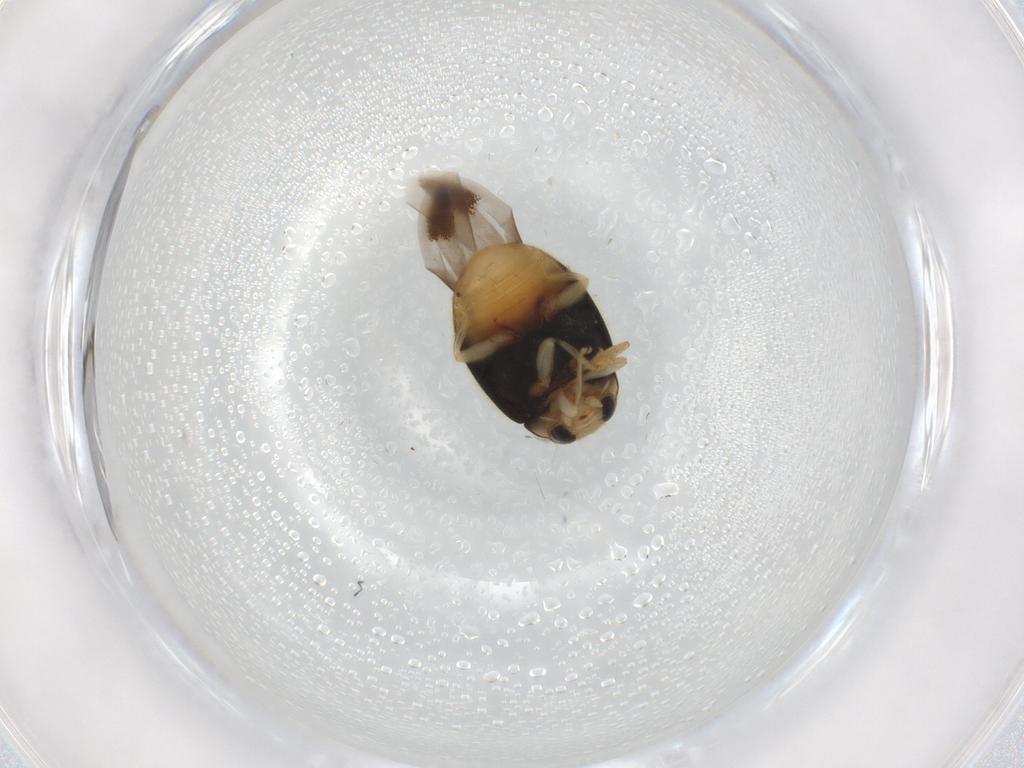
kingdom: Animalia
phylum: Arthropoda
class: Insecta
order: Coleoptera
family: Coccinellidae
